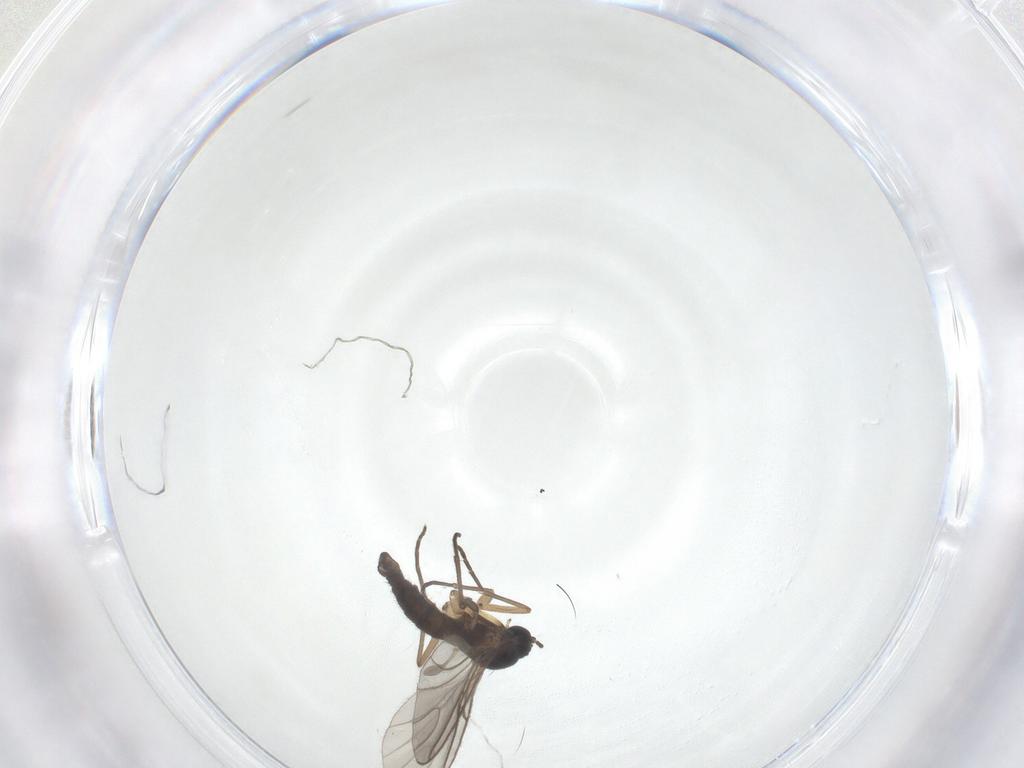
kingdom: Animalia
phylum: Arthropoda
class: Insecta
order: Diptera
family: Sciaridae
